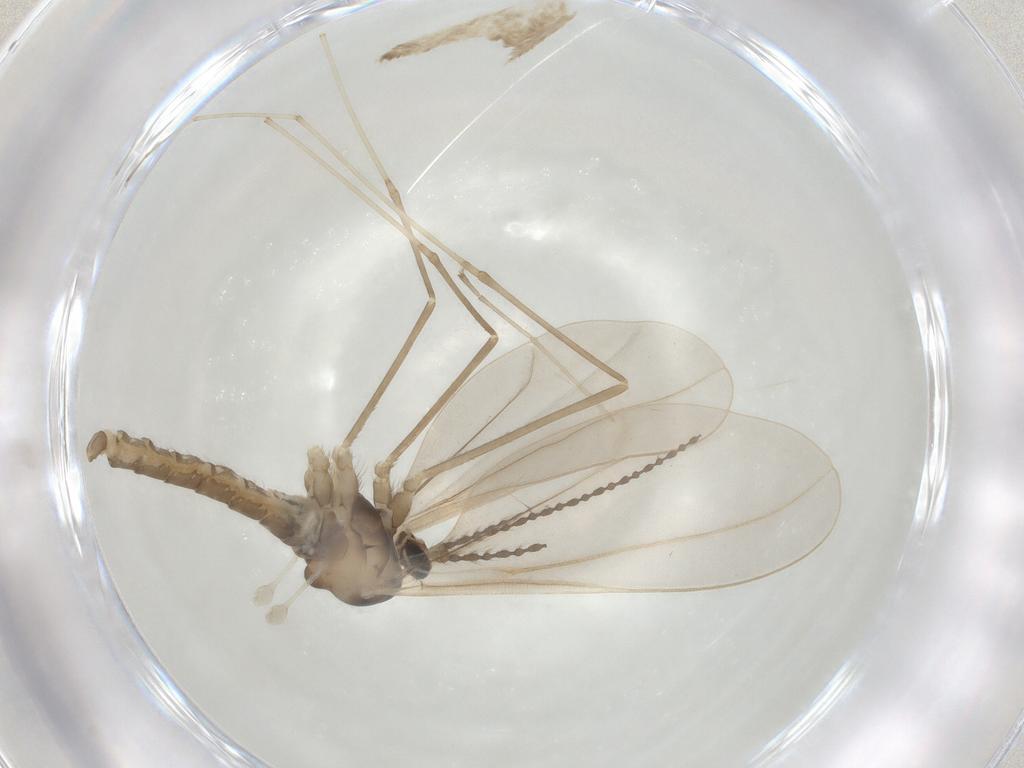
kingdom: Animalia
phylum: Arthropoda
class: Insecta
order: Diptera
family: Cecidomyiidae
